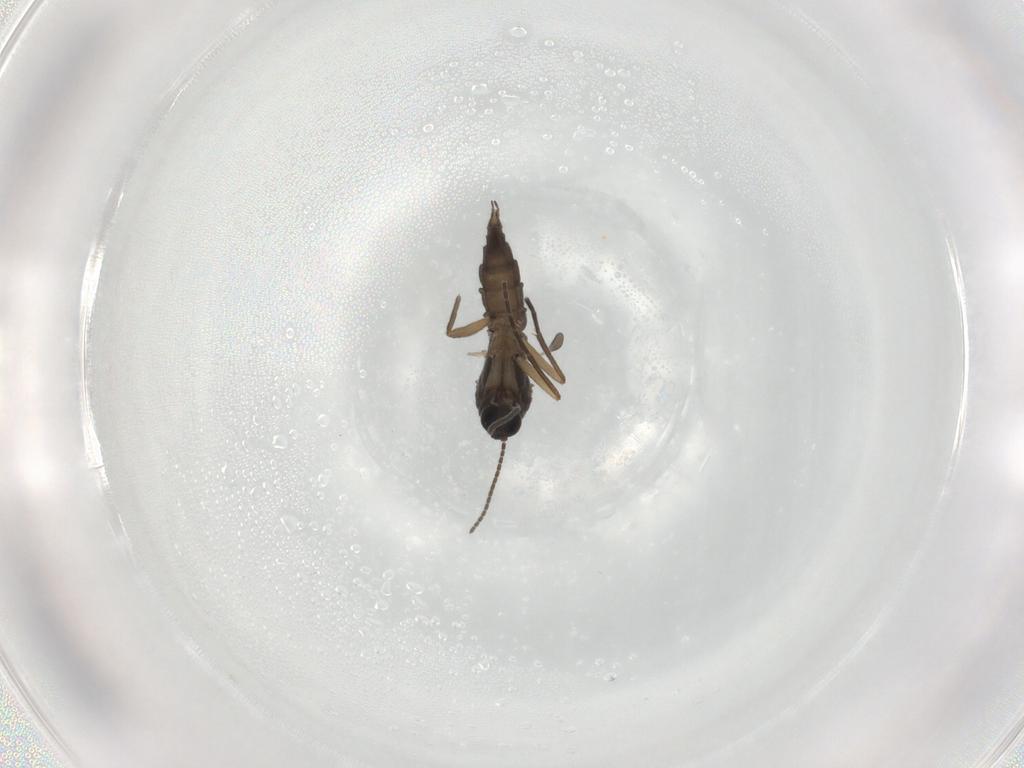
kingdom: Animalia
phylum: Arthropoda
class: Insecta
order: Diptera
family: Sciaridae
